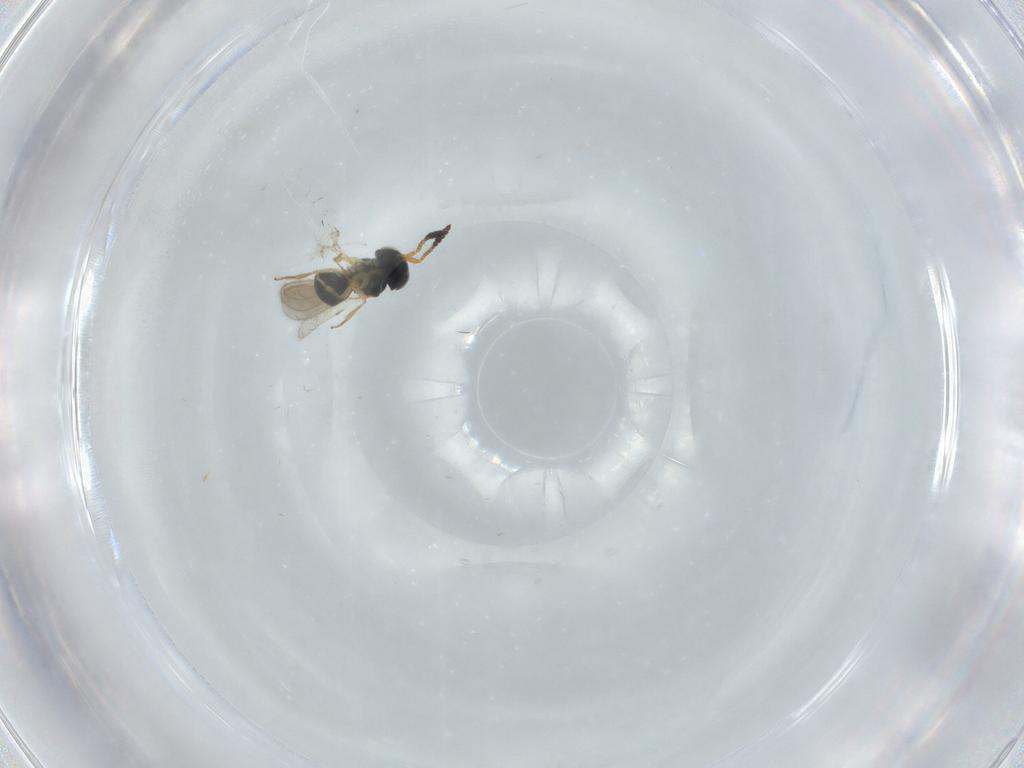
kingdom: Animalia
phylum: Arthropoda
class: Insecta
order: Hymenoptera
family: Scelionidae
